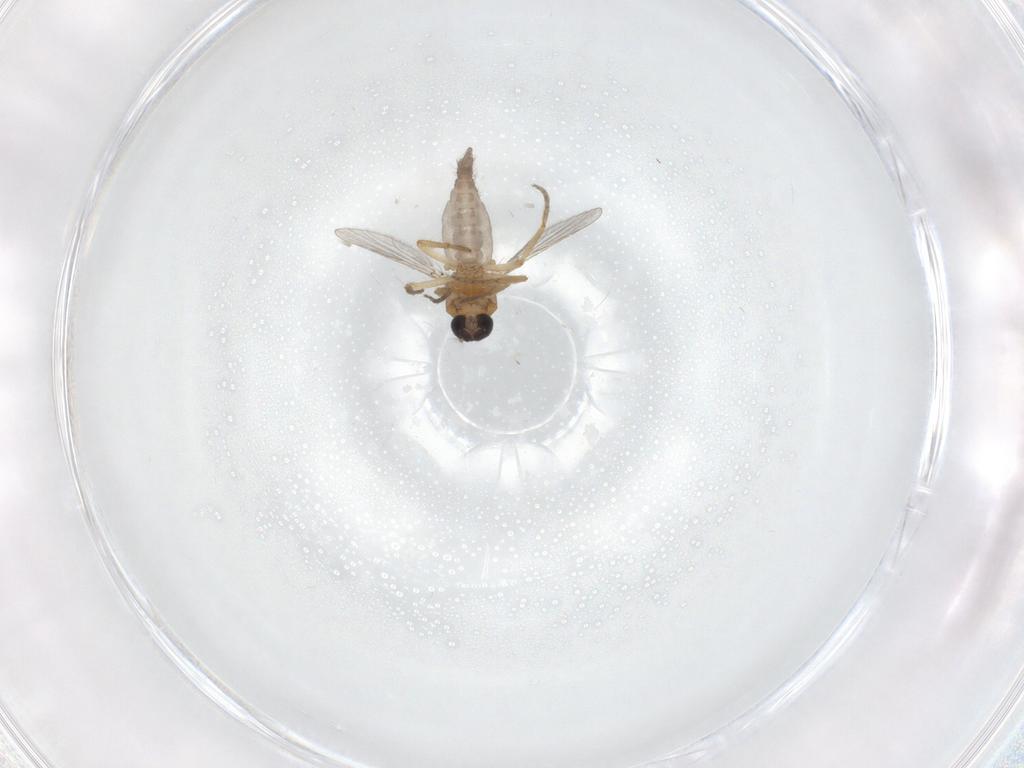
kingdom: Animalia
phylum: Arthropoda
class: Insecta
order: Diptera
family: Ceratopogonidae
